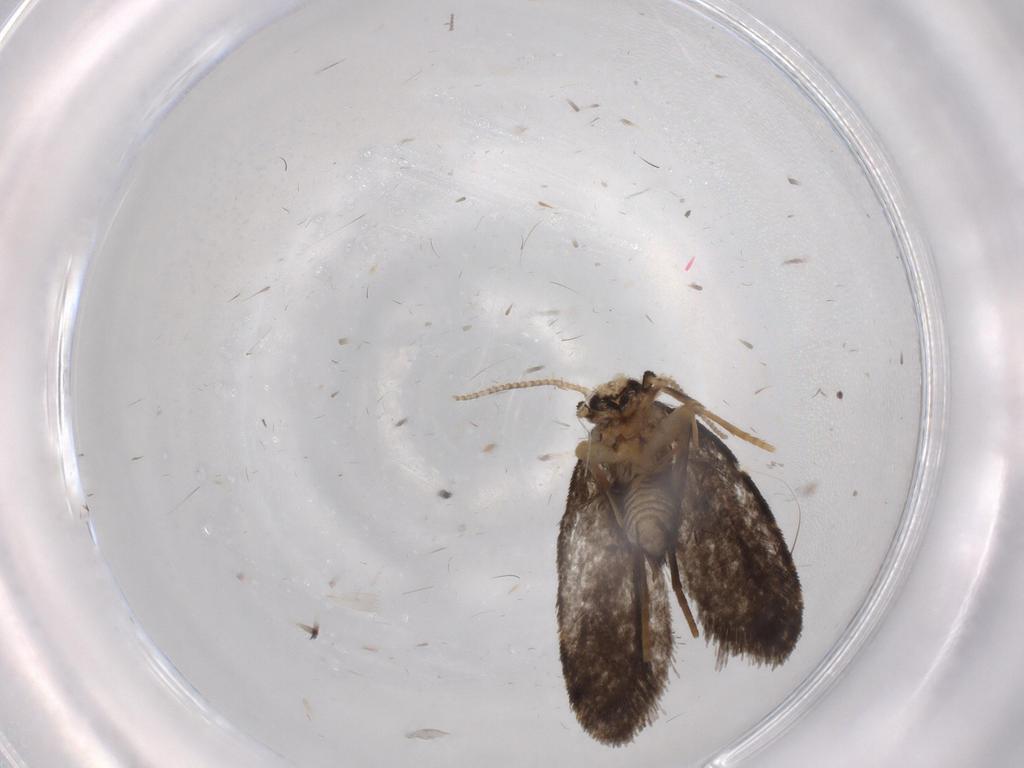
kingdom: Animalia
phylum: Arthropoda
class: Insecta
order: Lepidoptera
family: Psychidae
